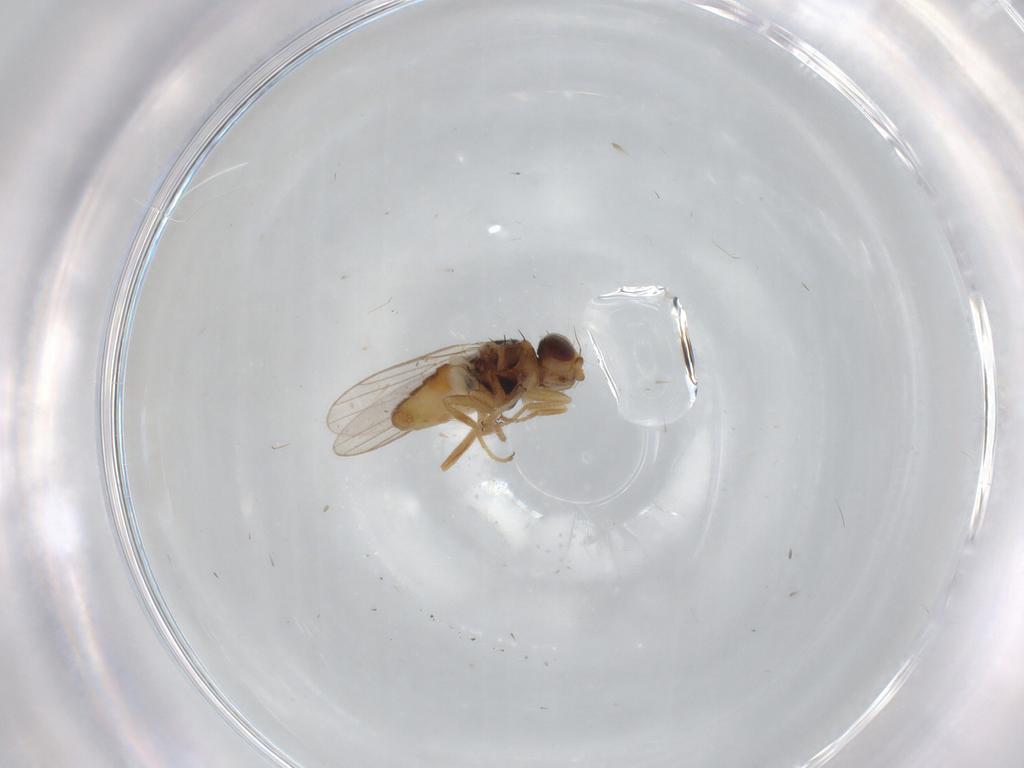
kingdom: Animalia
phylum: Arthropoda
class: Insecta
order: Diptera
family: Chloropidae
